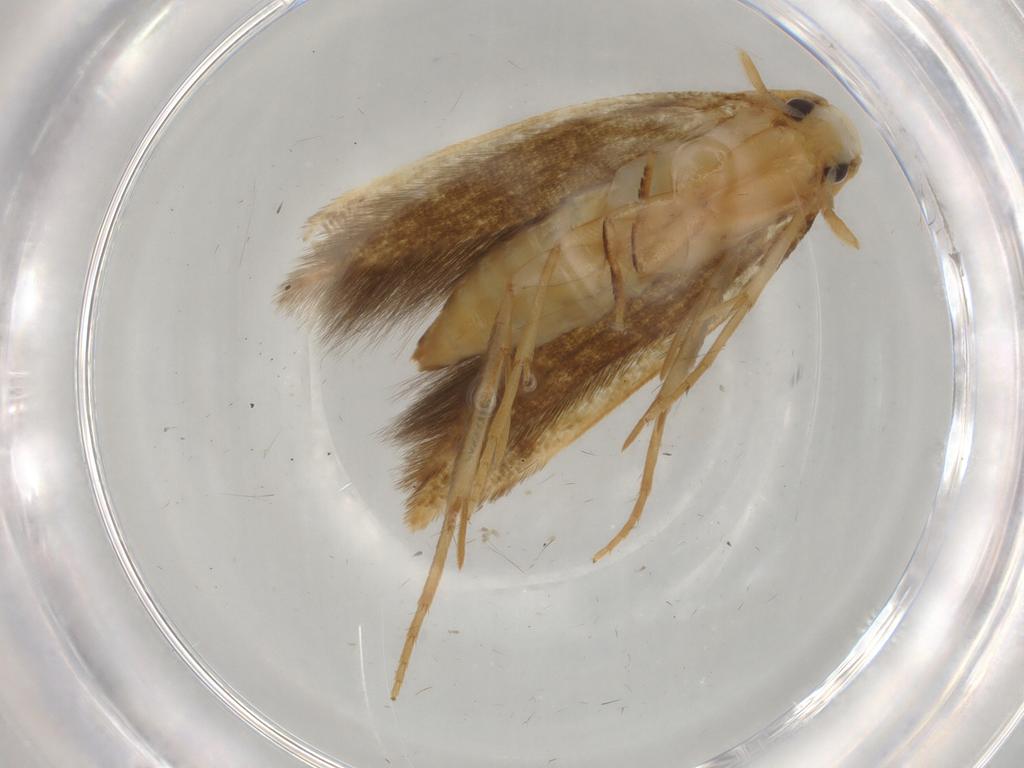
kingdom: Animalia
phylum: Arthropoda
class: Insecta
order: Lepidoptera
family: Tineidae
